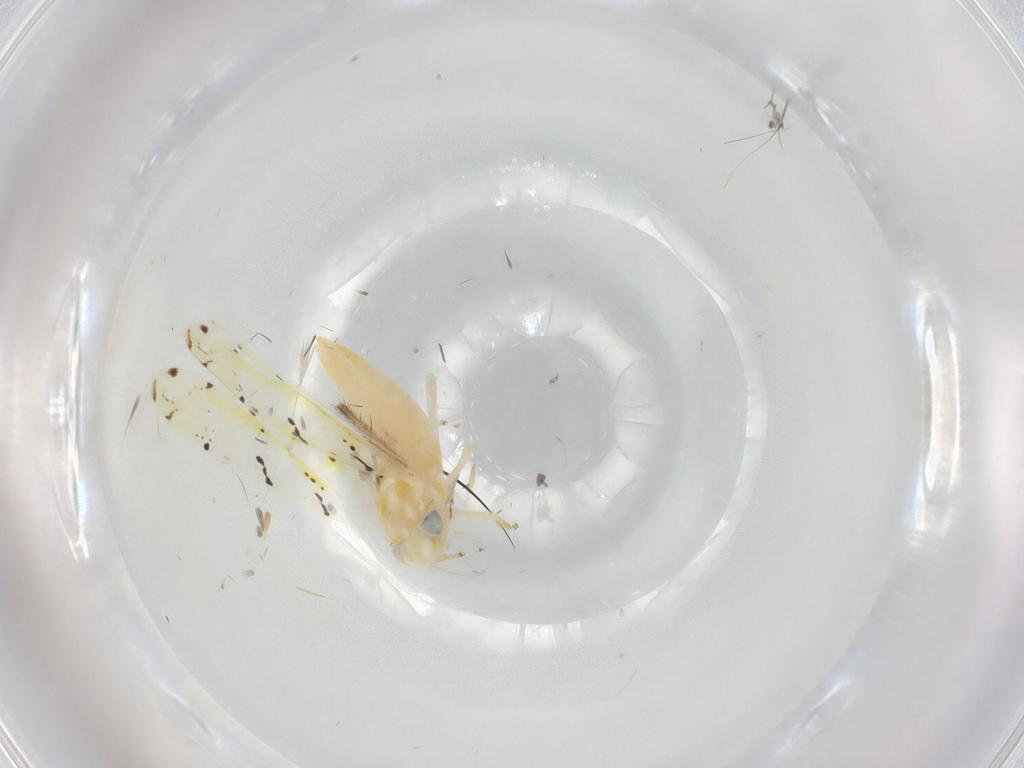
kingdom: Animalia
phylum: Arthropoda
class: Insecta
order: Hemiptera
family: Cicadellidae
